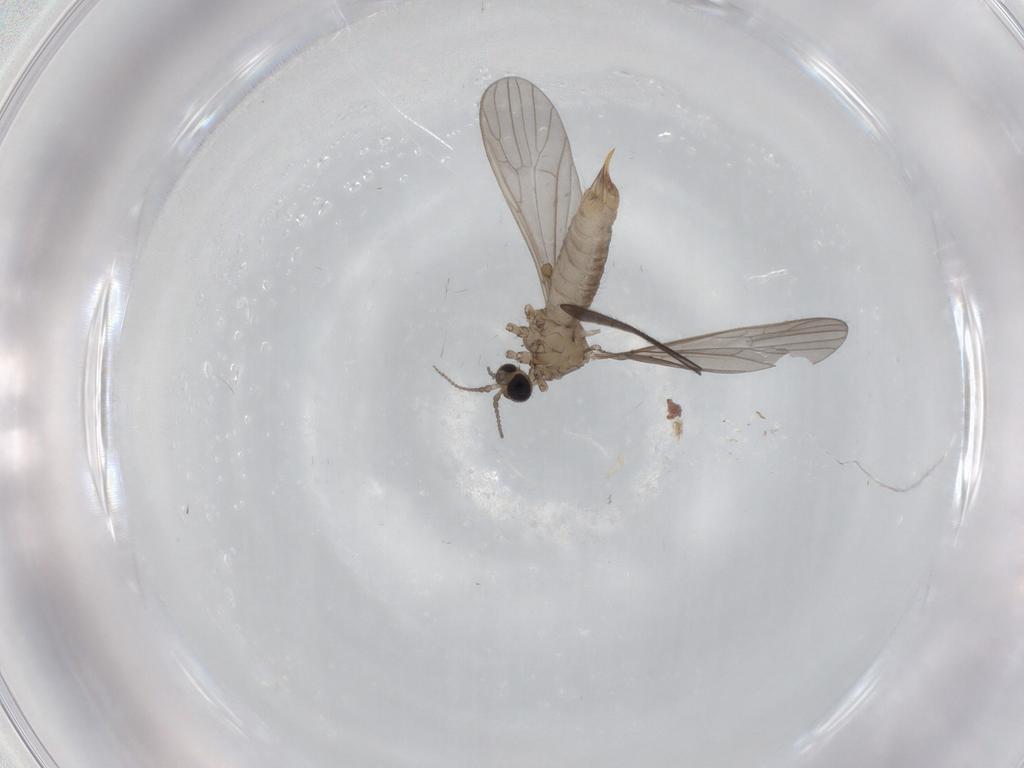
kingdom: Animalia
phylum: Arthropoda
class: Insecta
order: Diptera
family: Limoniidae
